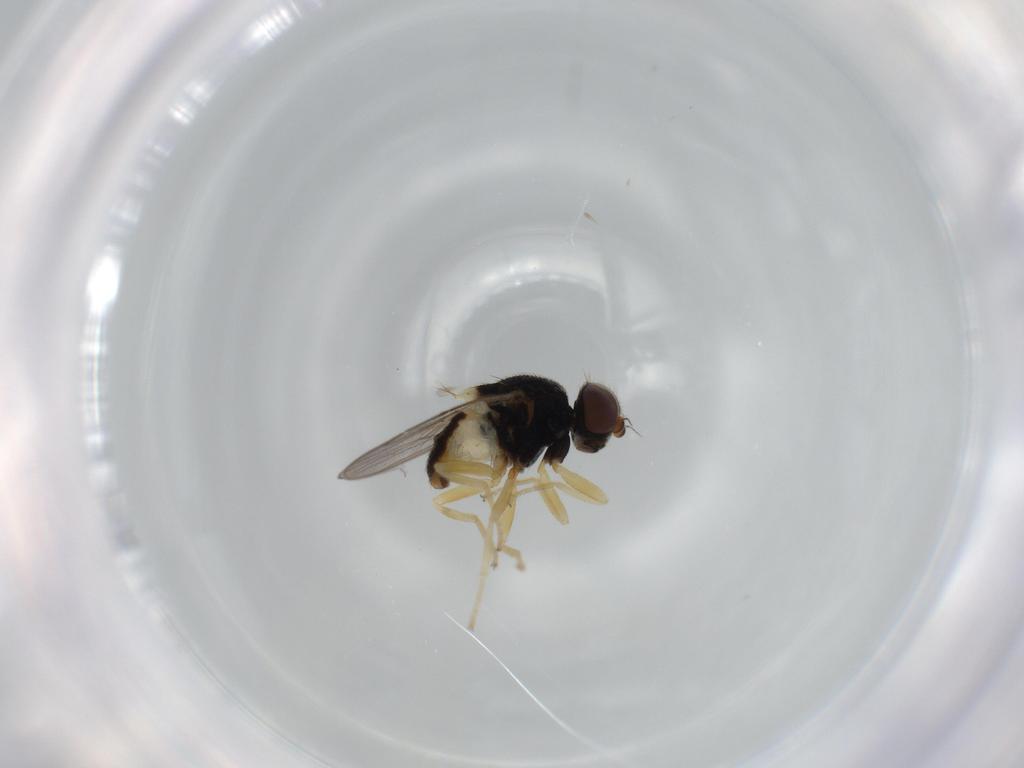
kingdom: Animalia
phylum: Arthropoda
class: Insecta
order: Diptera
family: Chloropidae
